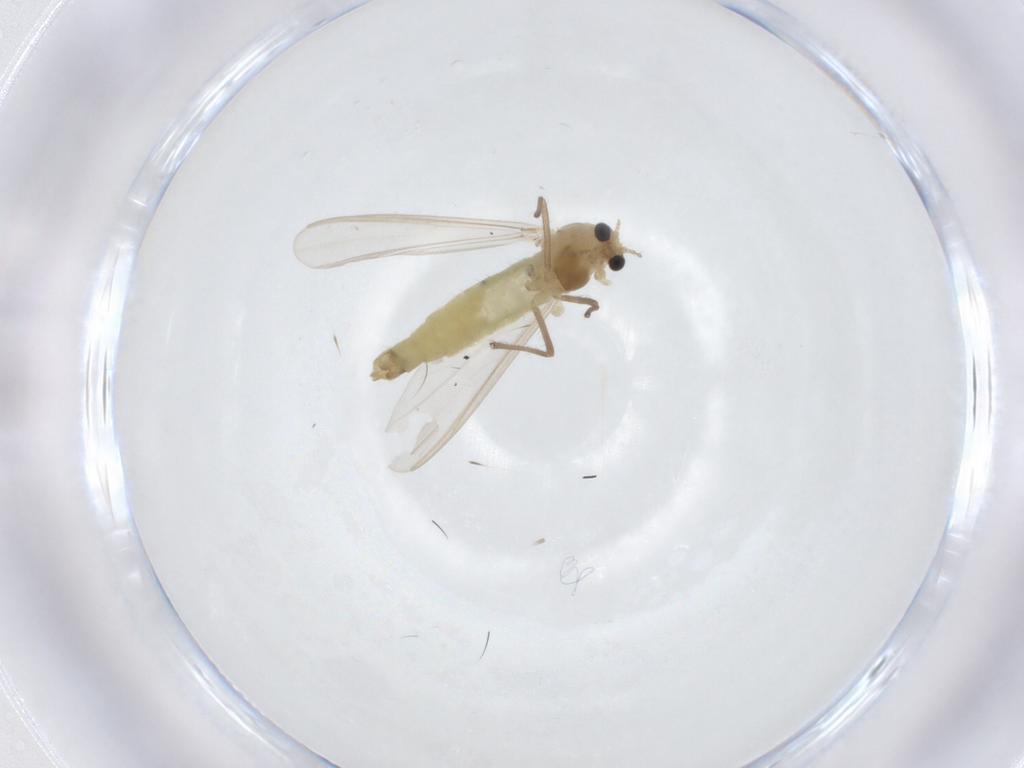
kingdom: Animalia
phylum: Arthropoda
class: Insecta
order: Diptera
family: Chironomidae
